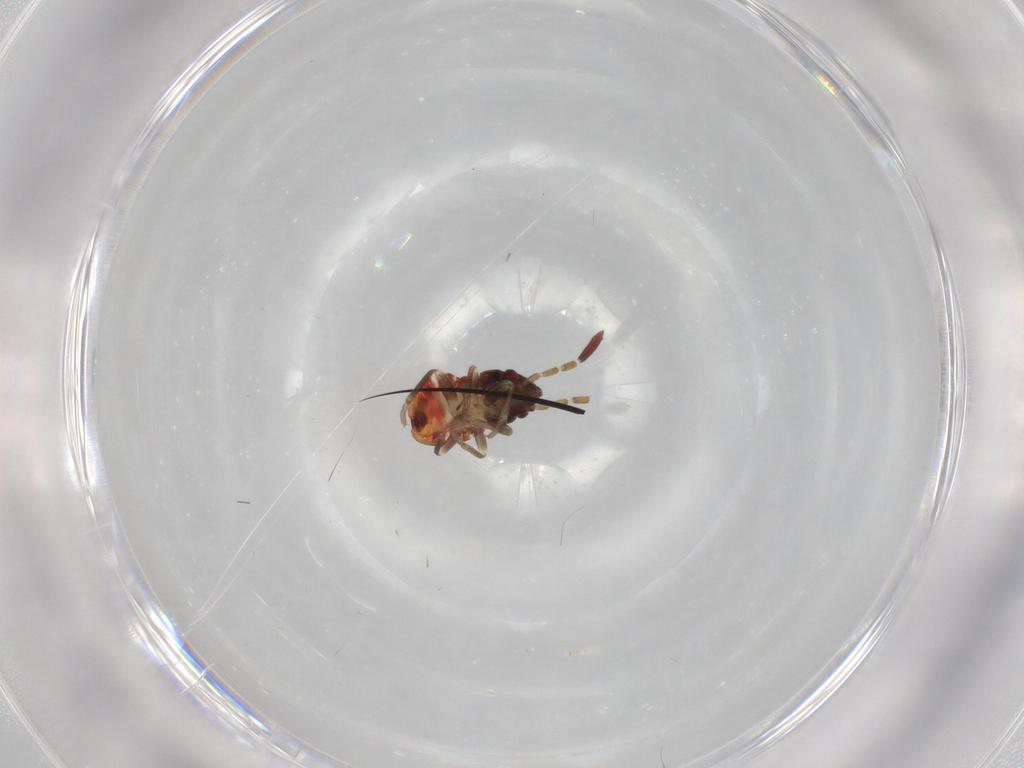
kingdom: Animalia
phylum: Arthropoda
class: Insecta
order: Hemiptera
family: Rhyparochromidae
